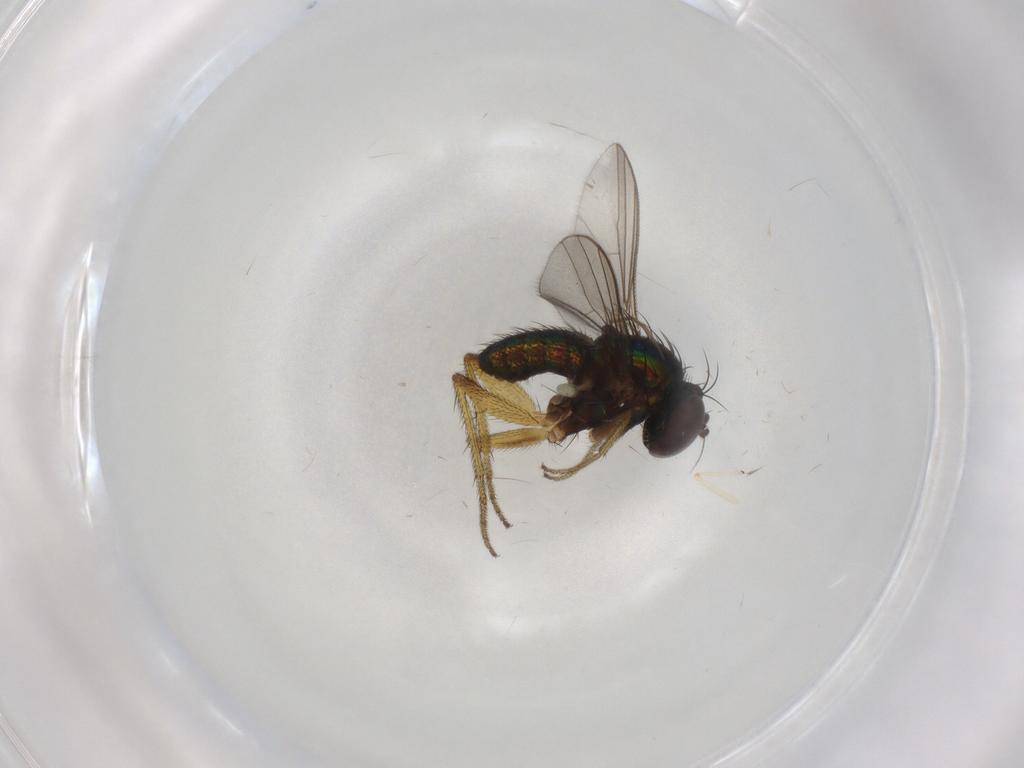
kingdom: Animalia
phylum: Arthropoda
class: Insecta
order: Diptera
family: Dolichopodidae
